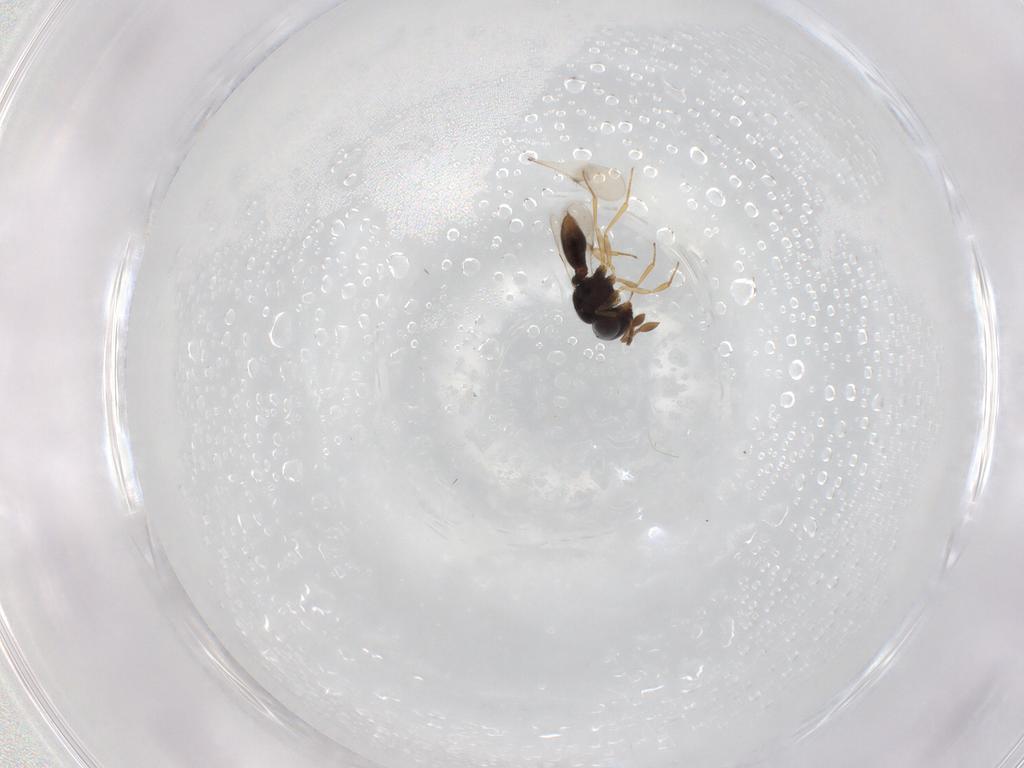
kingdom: Animalia
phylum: Arthropoda
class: Insecta
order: Hymenoptera
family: Scelionidae
